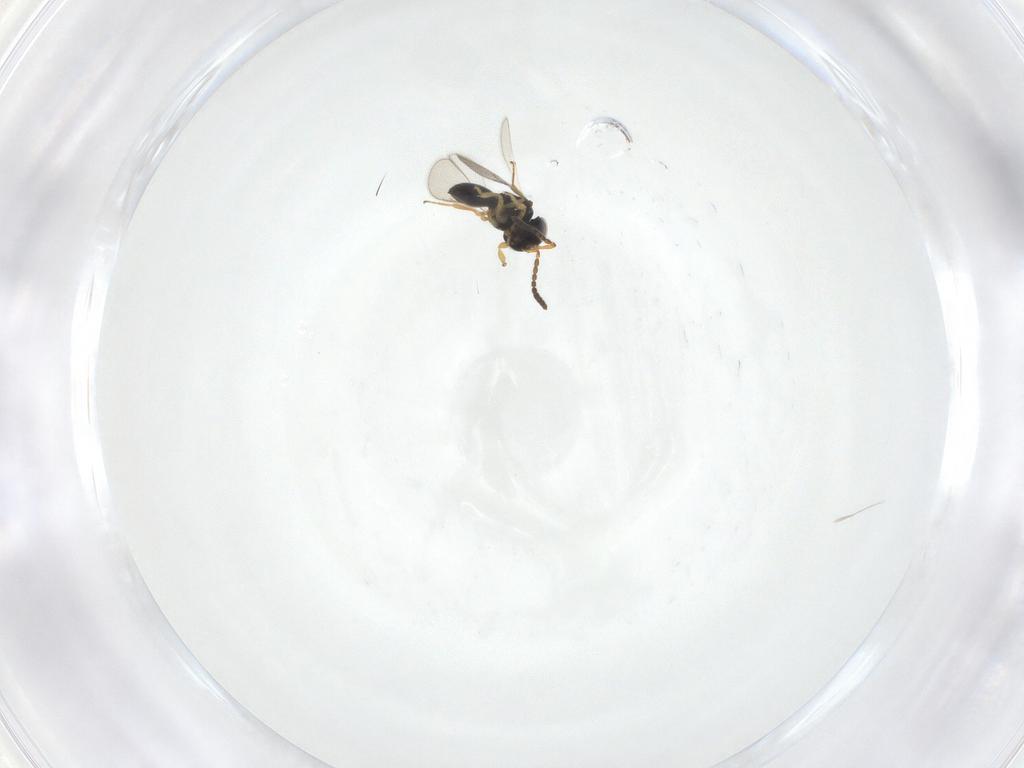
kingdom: Animalia
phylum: Arthropoda
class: Insecta
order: Hymenoptera
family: Scelionidae
